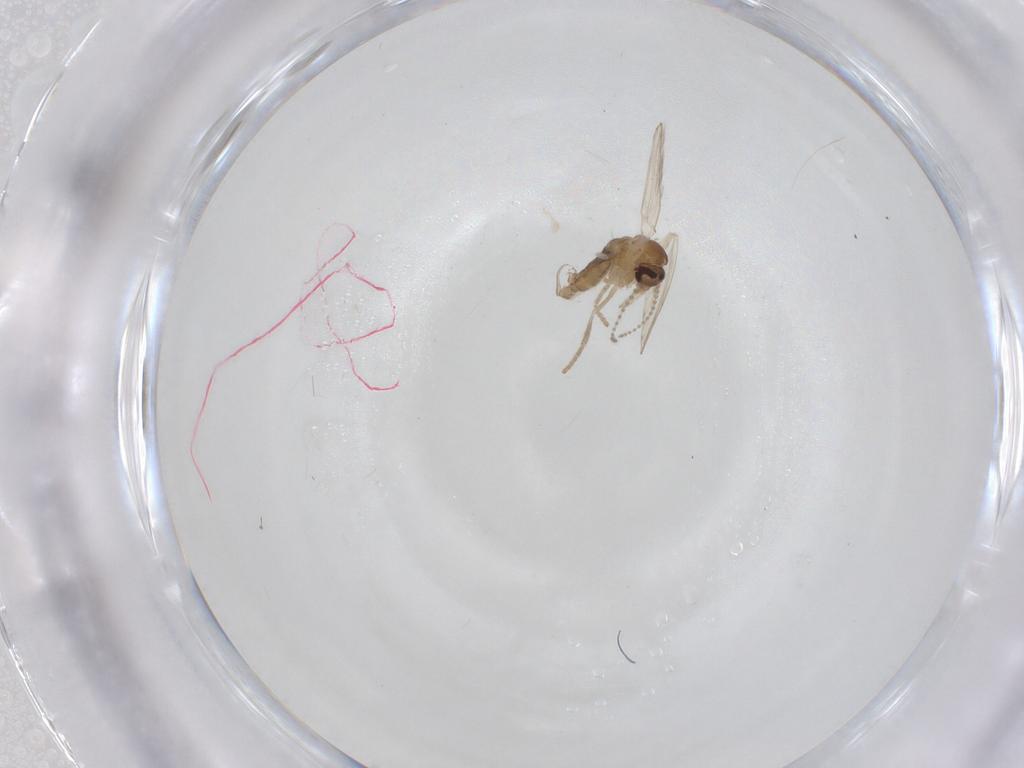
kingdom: Animalia
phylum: Arthropoda
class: Insecta
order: Diptera
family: Psychodidae
